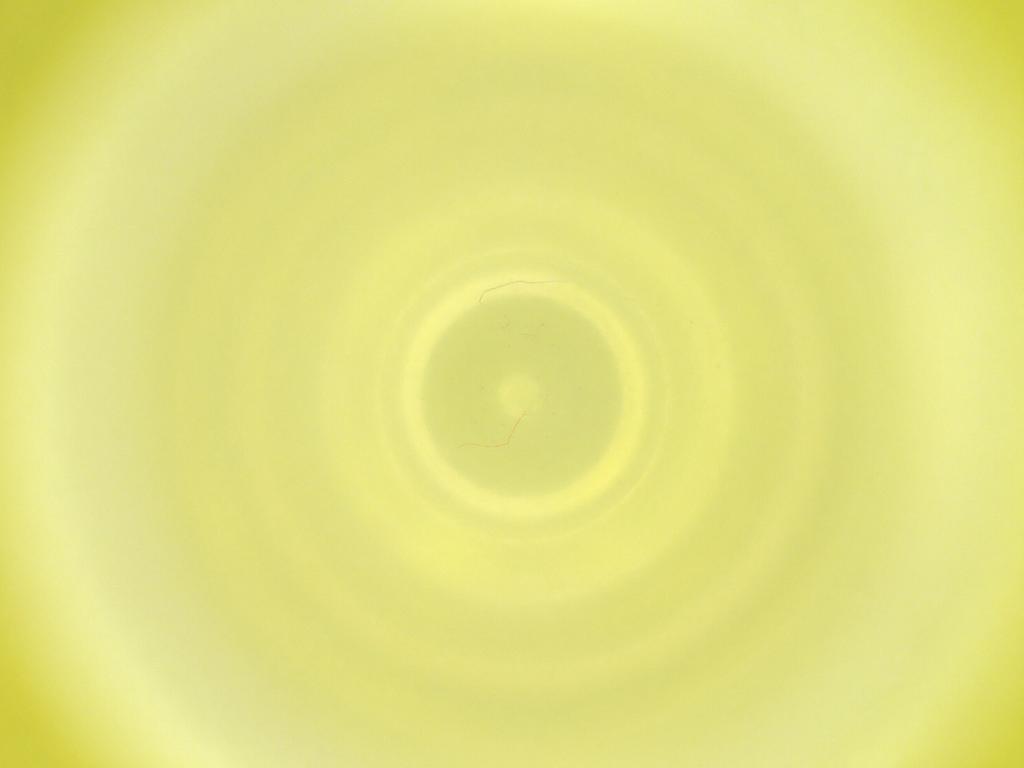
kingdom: Animalia
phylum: Arthropoda
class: Insecta
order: Diptera
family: Cecidomyiidae
